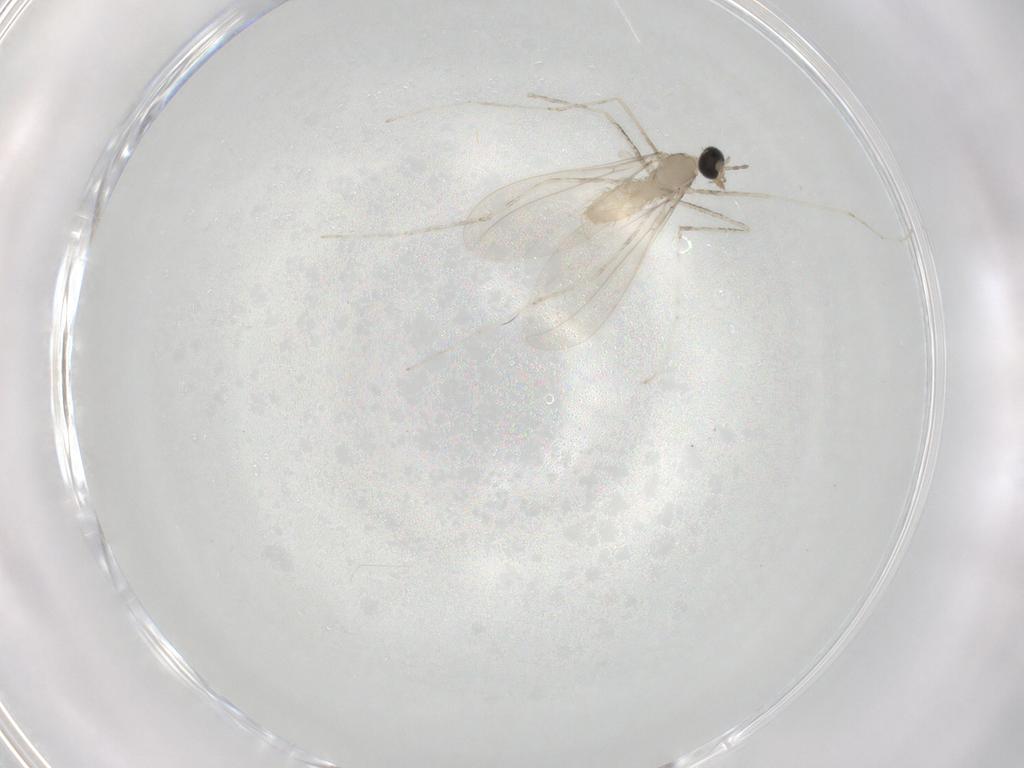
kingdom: Animalia
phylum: Arthropoda
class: Insecta
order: Diptera
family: Cecidomyiidae
